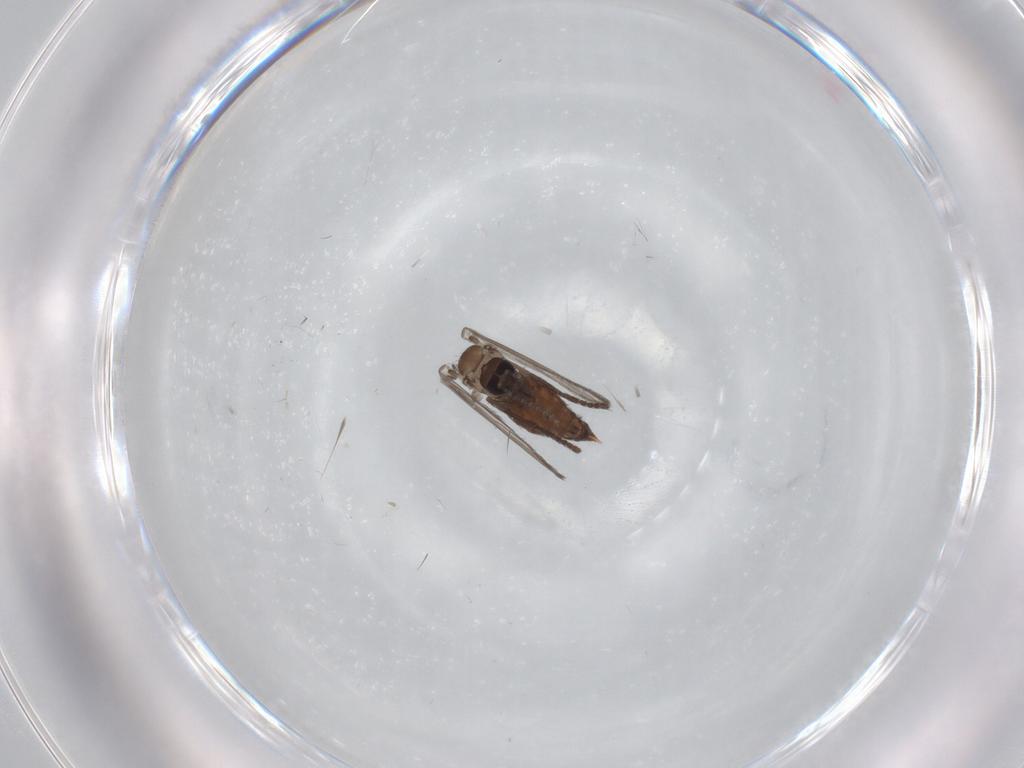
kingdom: Animalia
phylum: Arthropoda
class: Insecta
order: Diptera
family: Psychodidae
